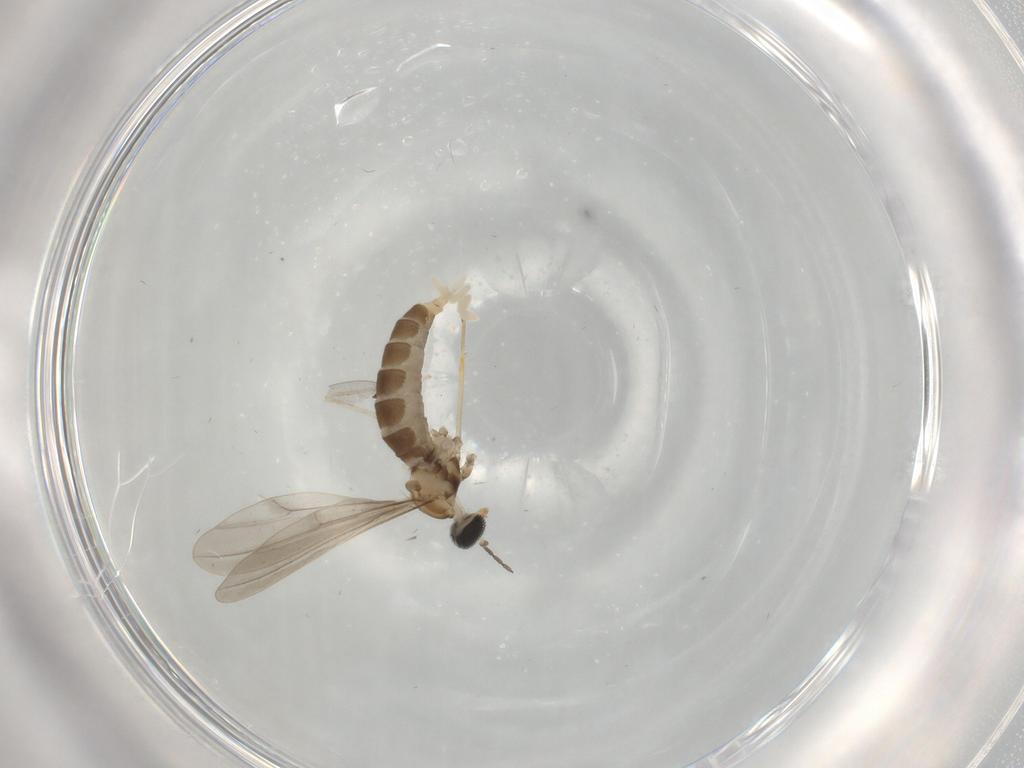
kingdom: Animalia
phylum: Arthropoda
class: Insecta
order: Diptera
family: Cecidomyiidae
